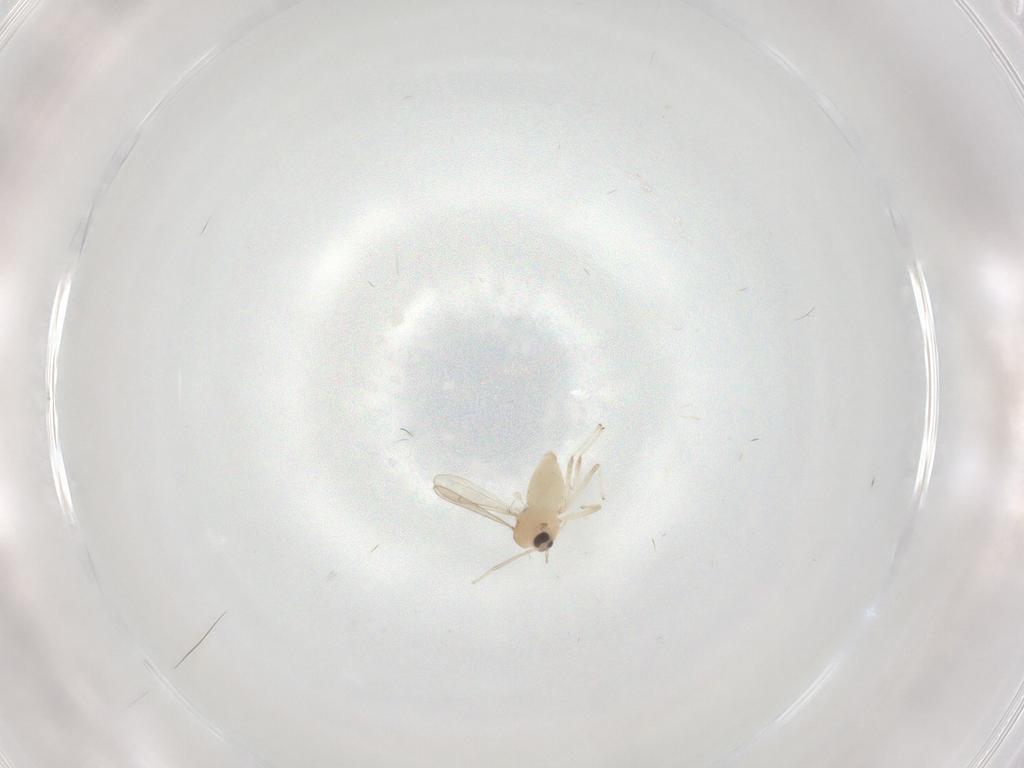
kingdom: Animalia
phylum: Arthropoda
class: Insecta
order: Diptera
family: Chironomidae
